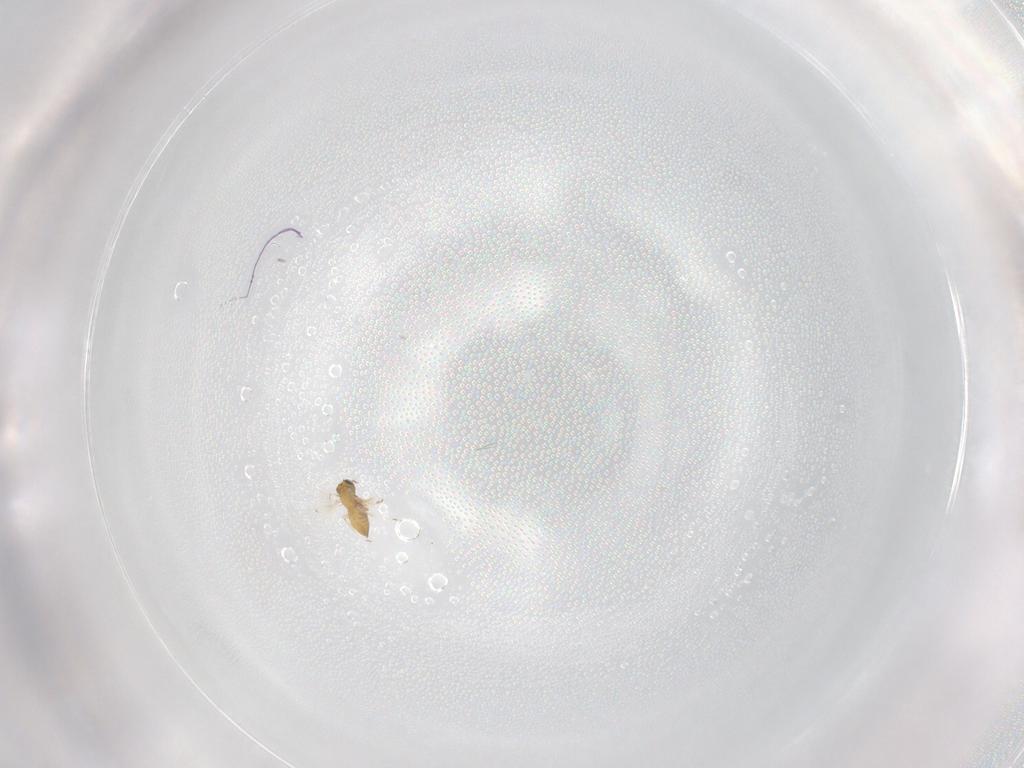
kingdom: Animalia
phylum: Arthropoda
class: Insecta
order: Hymenoptera
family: Trichogrammatidae
